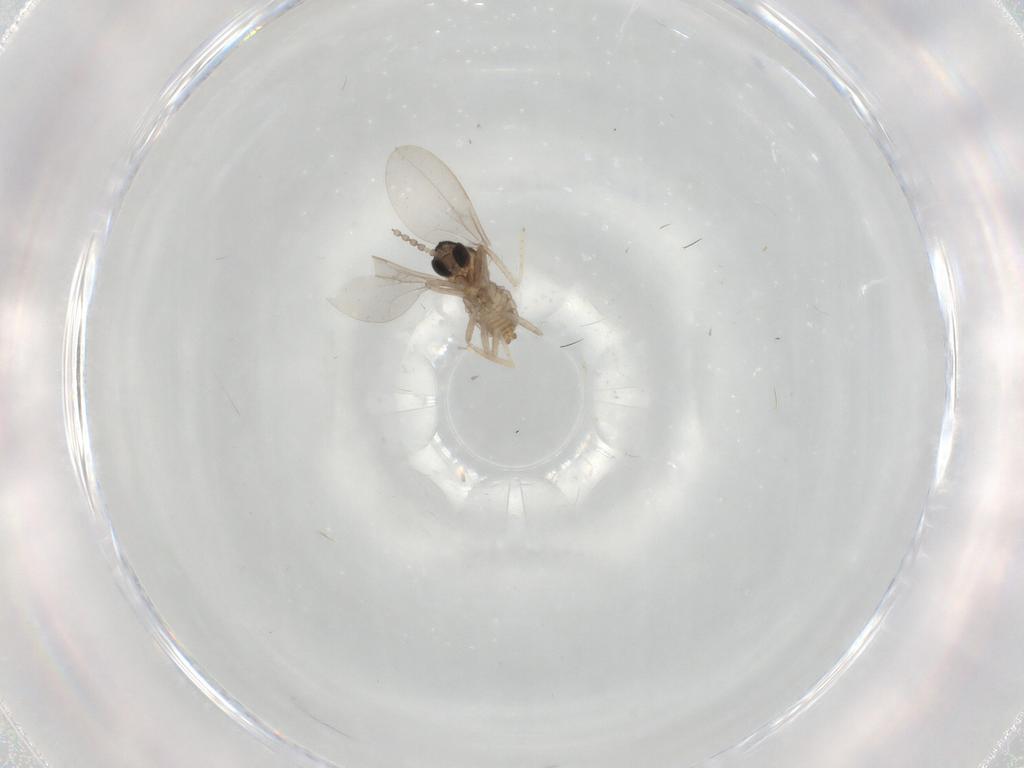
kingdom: Animalia
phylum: Arthropoda
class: Insecta
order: Diptera
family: Cecidomyiidae
